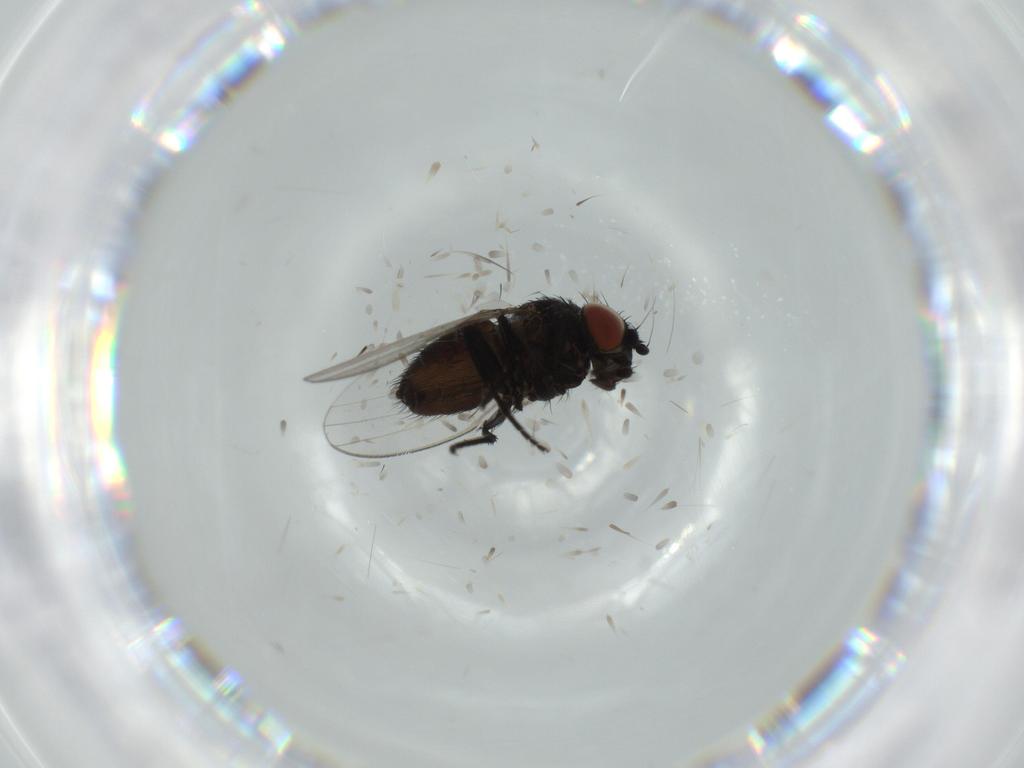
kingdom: Animalia
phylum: Arthropoda
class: Insecta
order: Diptera
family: Milichiidae
